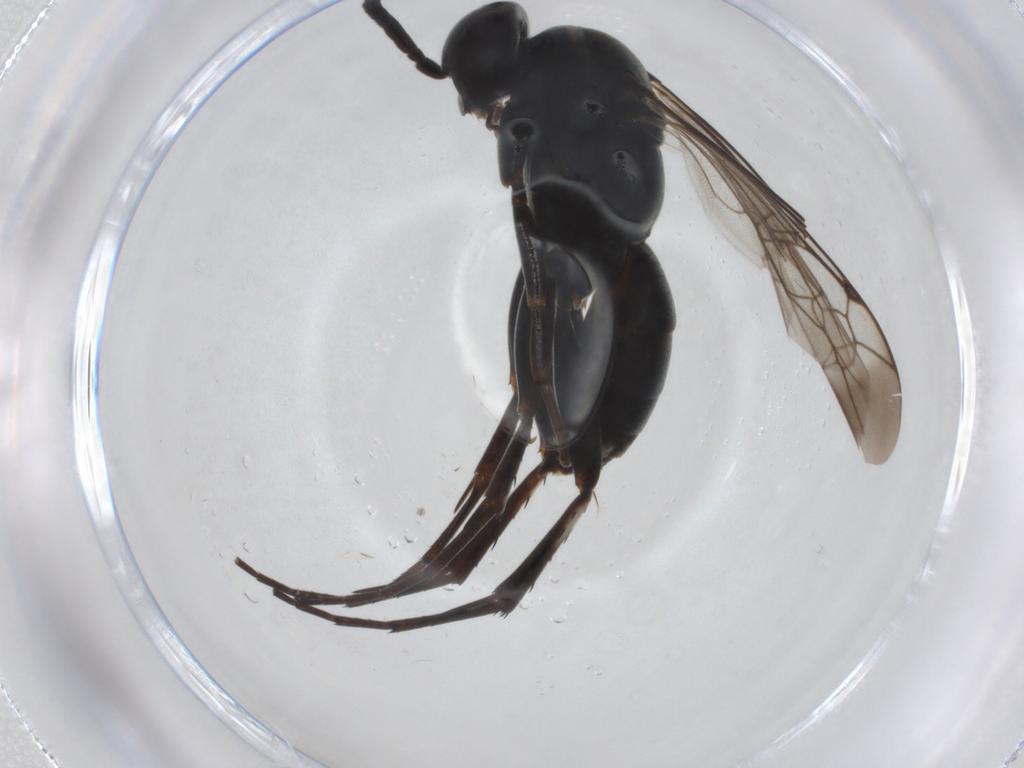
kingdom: Animalia
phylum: Arthropoda
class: Insecta
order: Hymenoptera
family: Pompilidae
